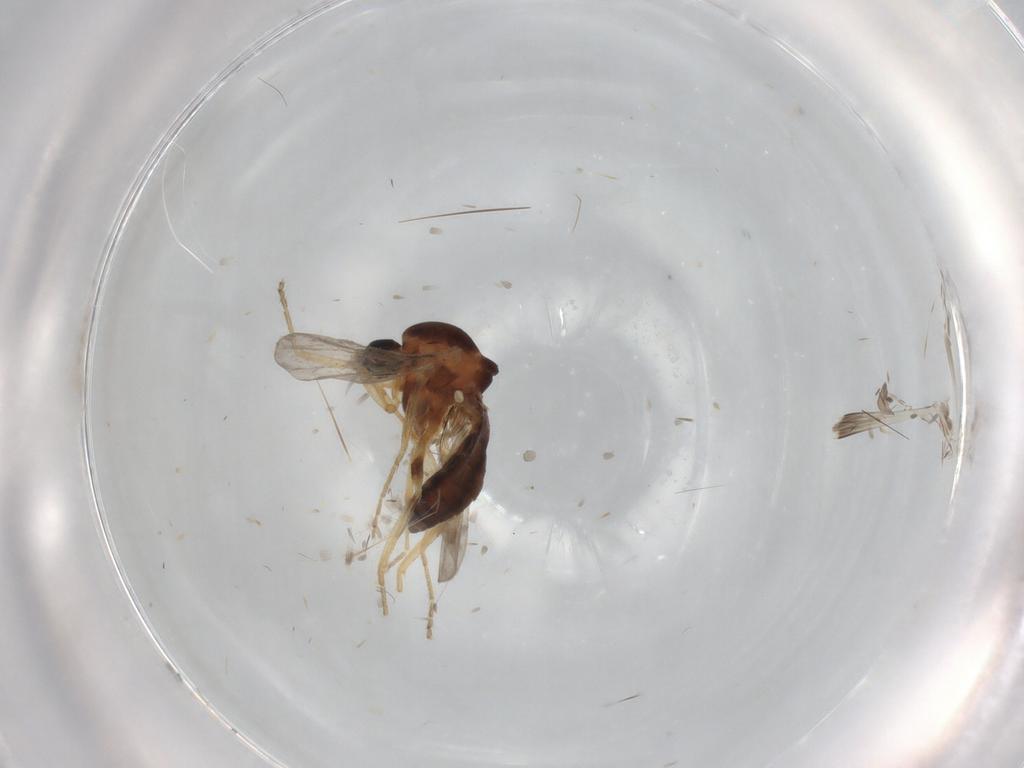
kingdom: Animalia
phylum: Arthropoda
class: Insecta
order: Diptera
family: Ceratopogonidae
